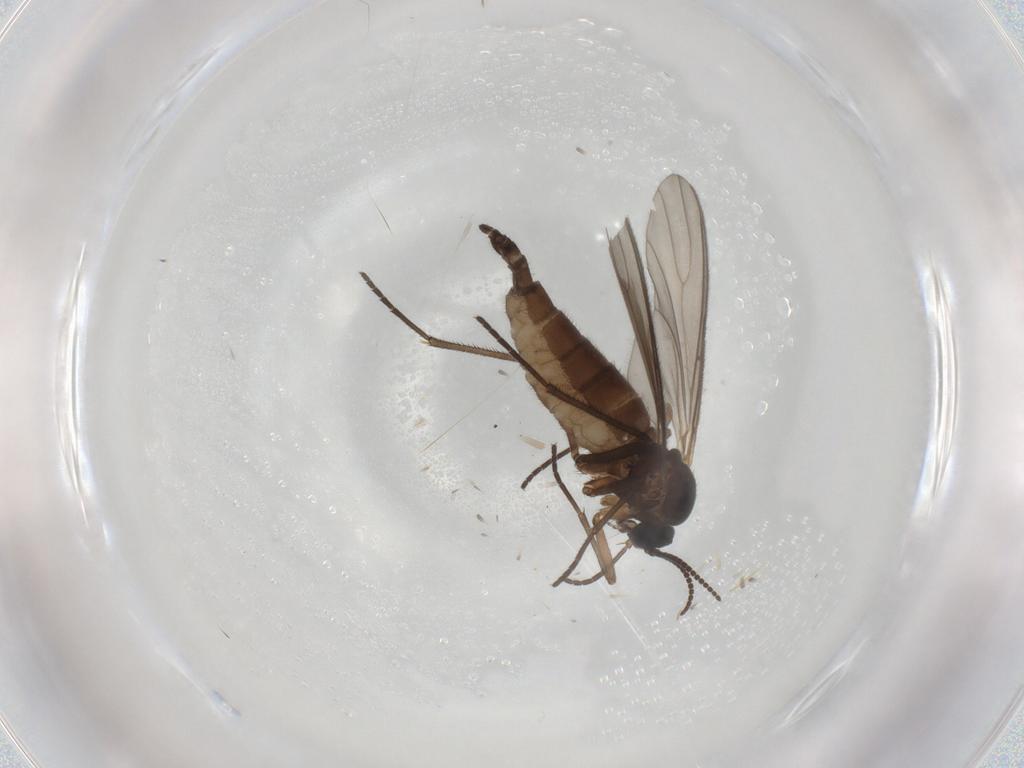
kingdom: Animalia
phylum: Arthropoda
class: Insecta
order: Diptera
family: Sciaridae
